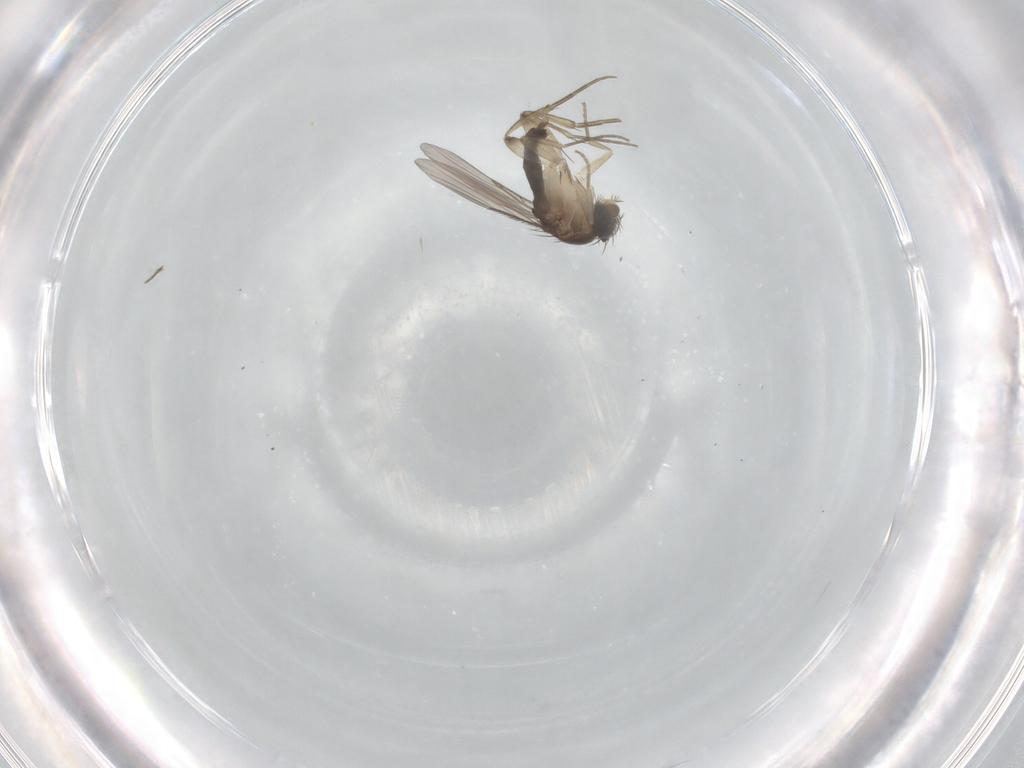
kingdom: Animalia
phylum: Arthropoda
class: Insecta
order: Diptera
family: Phoridae
